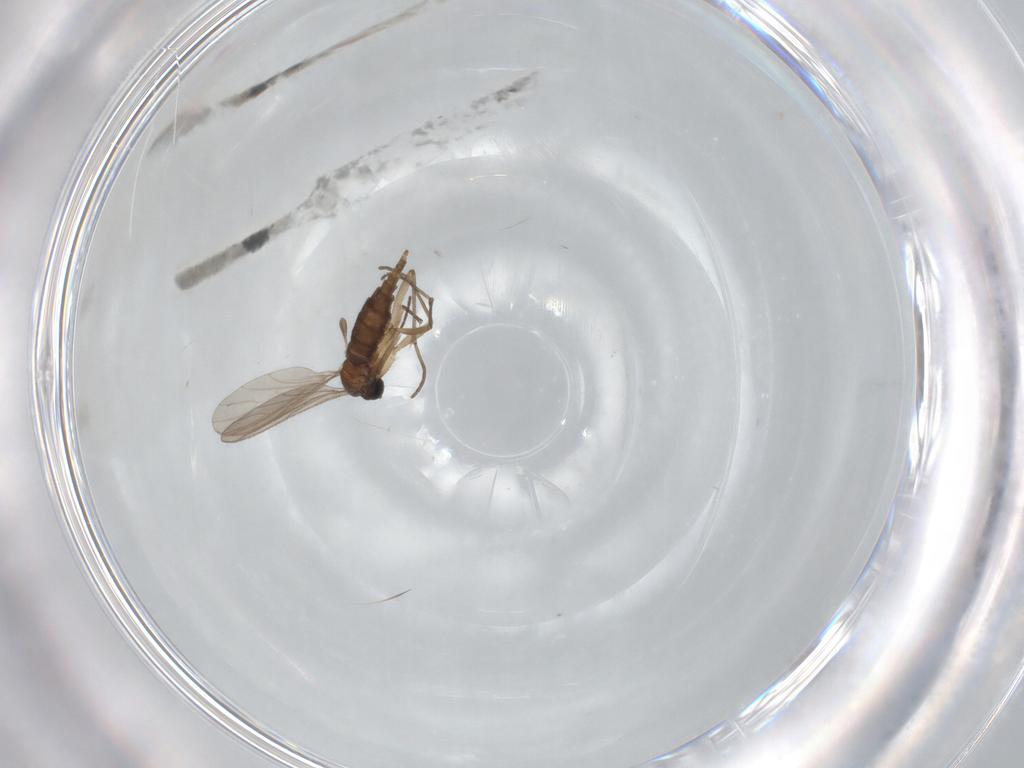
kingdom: Animalia
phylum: Arthropoda
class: Insecta
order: Diptera
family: Sciaridae
